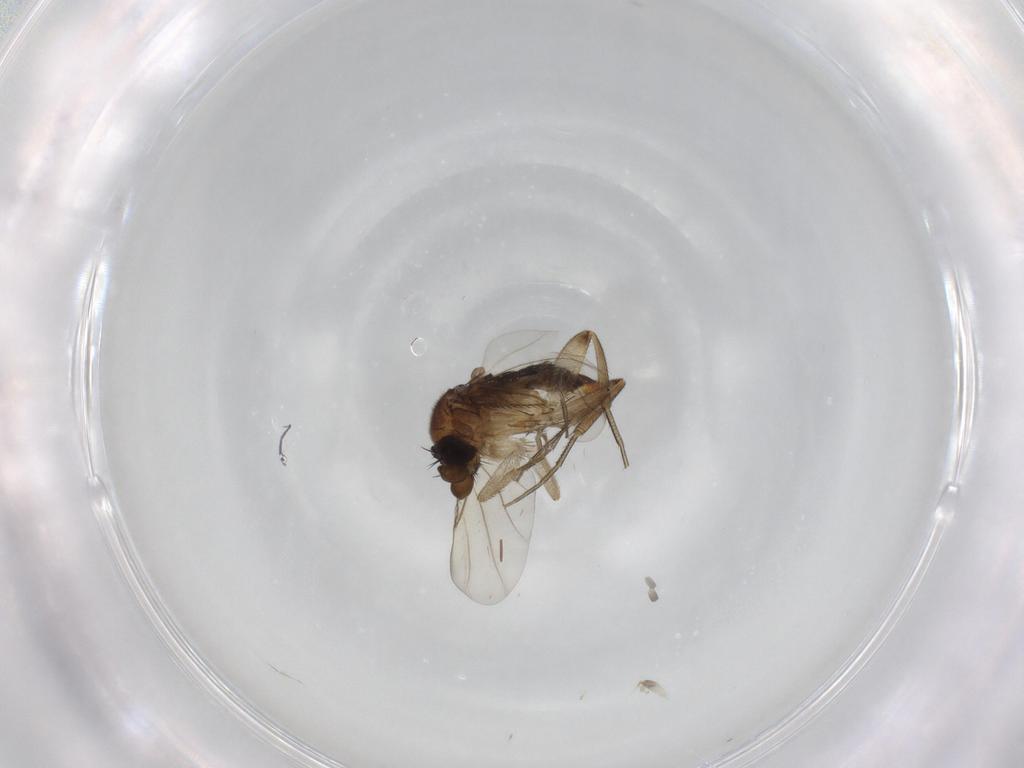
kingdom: Animalia
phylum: Arthropoda
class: Insecta
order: Diptera
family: Phoridae
